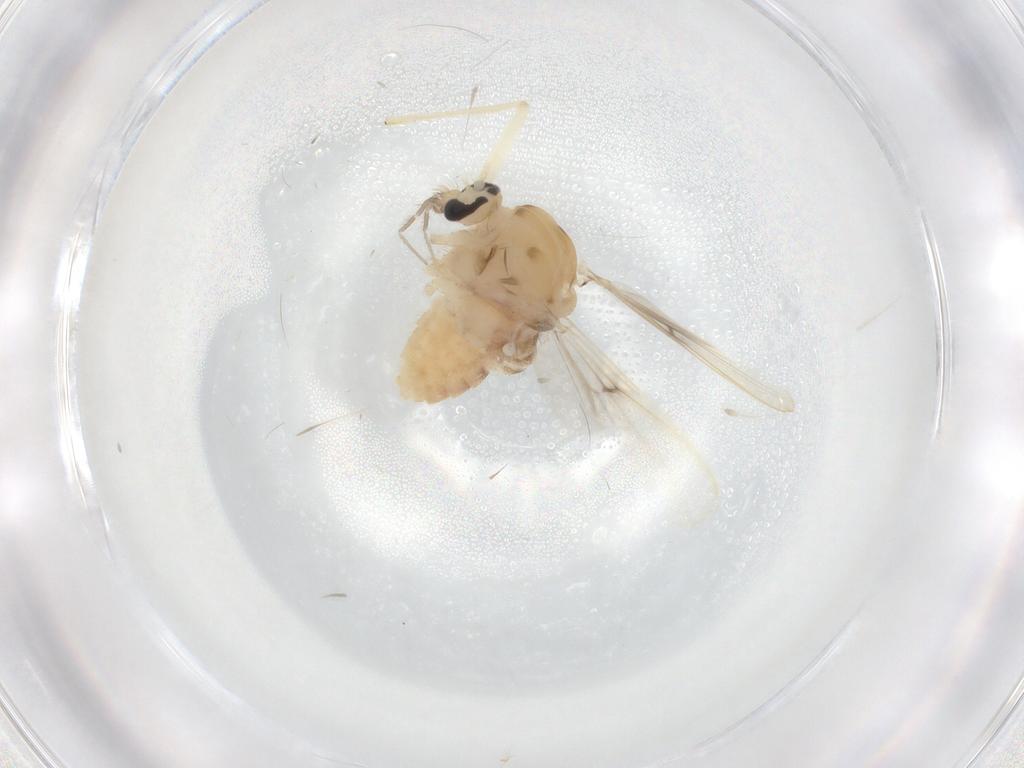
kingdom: Animalia
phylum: Arthropoda
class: Insecta
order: Diptera
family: Chironomidae
